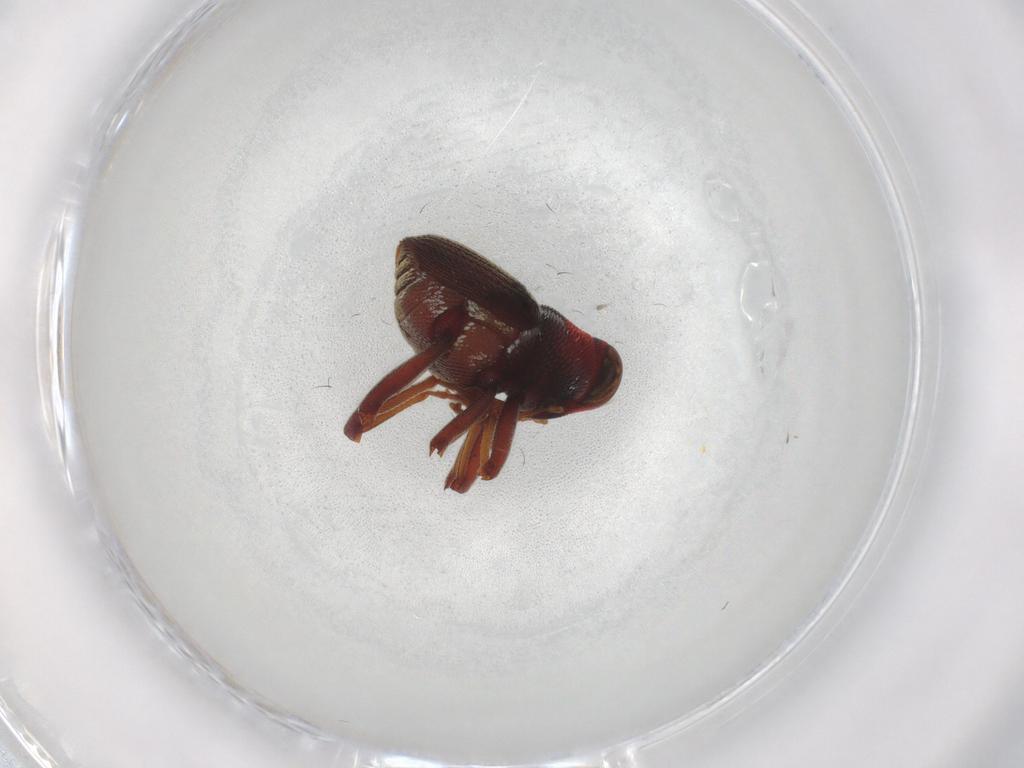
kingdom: Animalia
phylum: Arthropoda
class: Insecta
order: Coleoptera
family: Curculionidae
